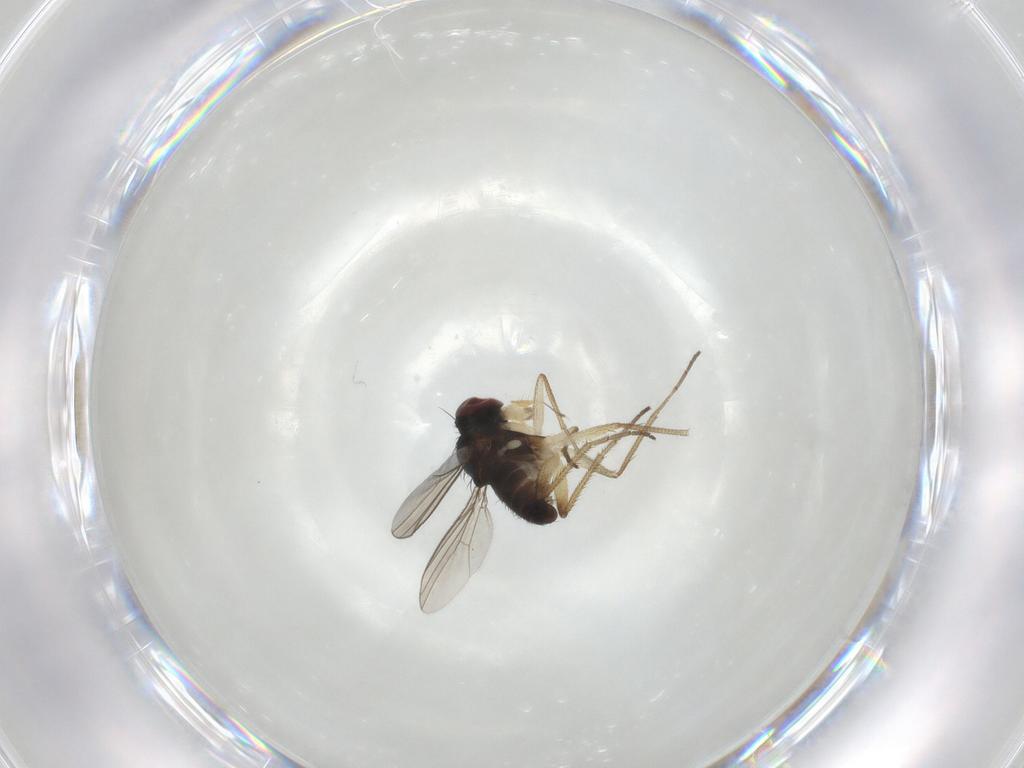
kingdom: Animalia
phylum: Arthropoda
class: Insecta
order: Diptera
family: Dolichopodidae
